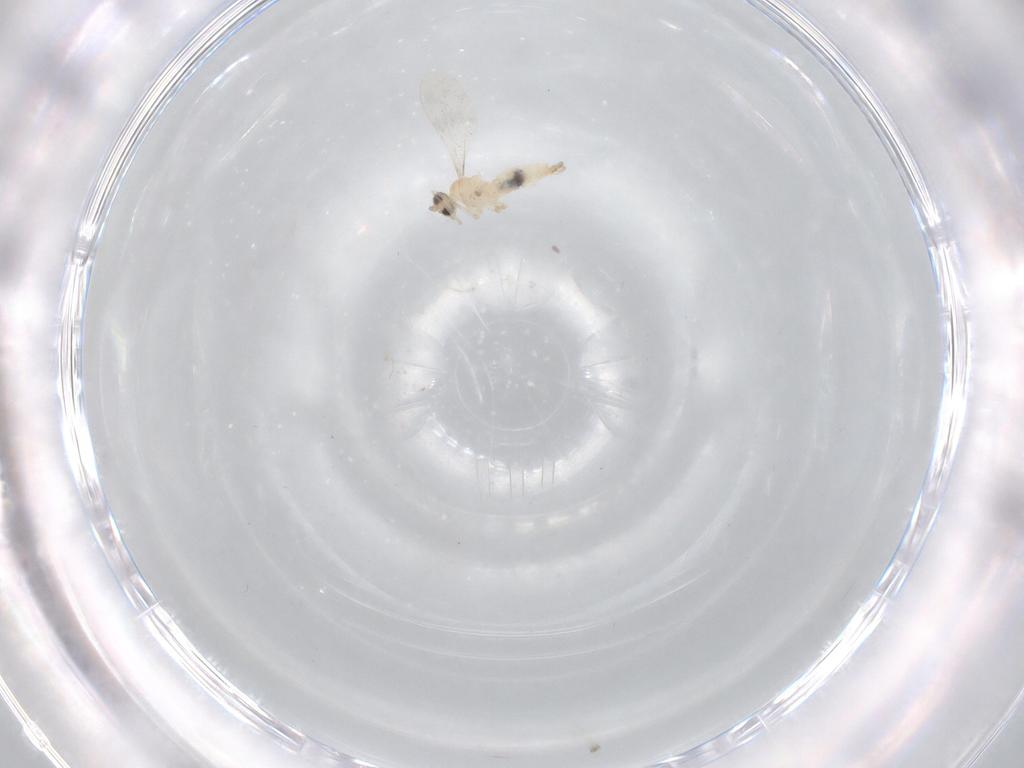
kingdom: Animalia
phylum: Arthropoda
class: Insecta
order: Diptera
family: Cecidomyiidae
